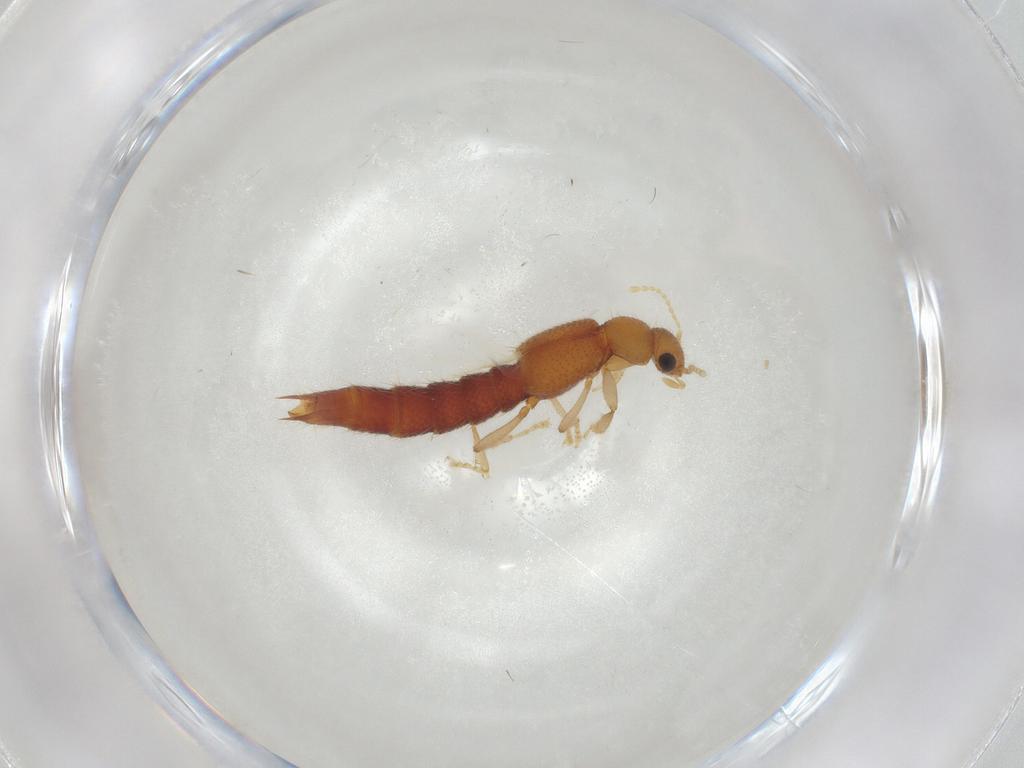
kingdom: Animalia
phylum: Arthropoda
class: Insecta
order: Coleoptera
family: Staphylinidae
